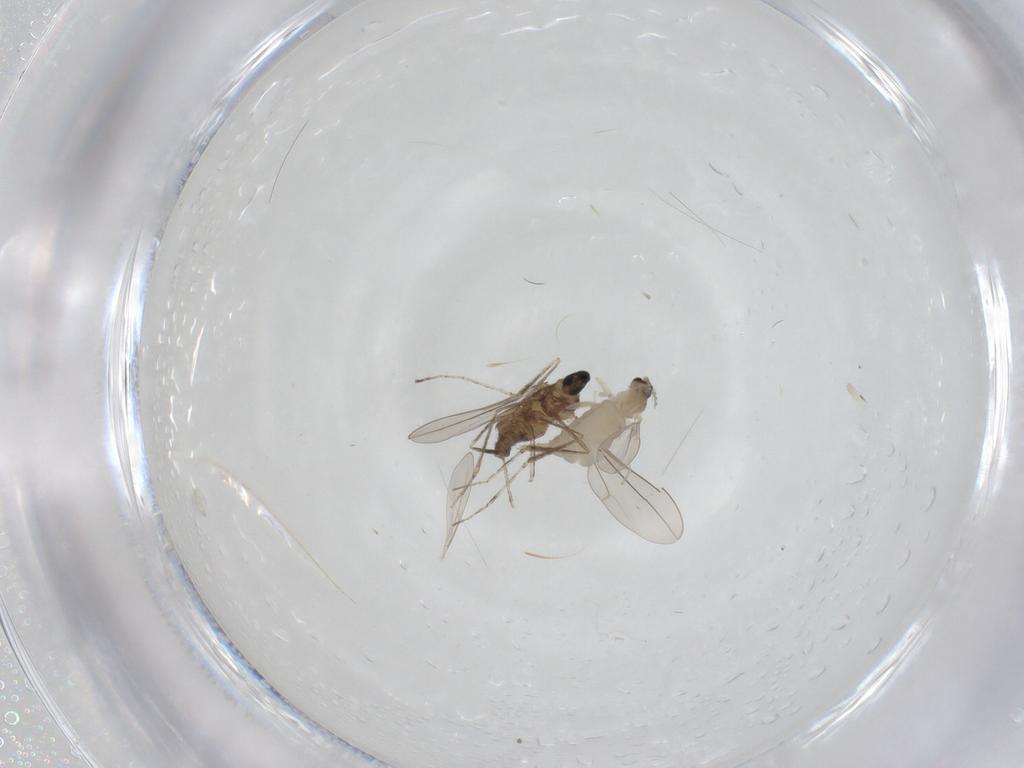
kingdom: Animalia
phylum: Arthropoda
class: Insecta
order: Diptera
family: Cecidomyiidae
